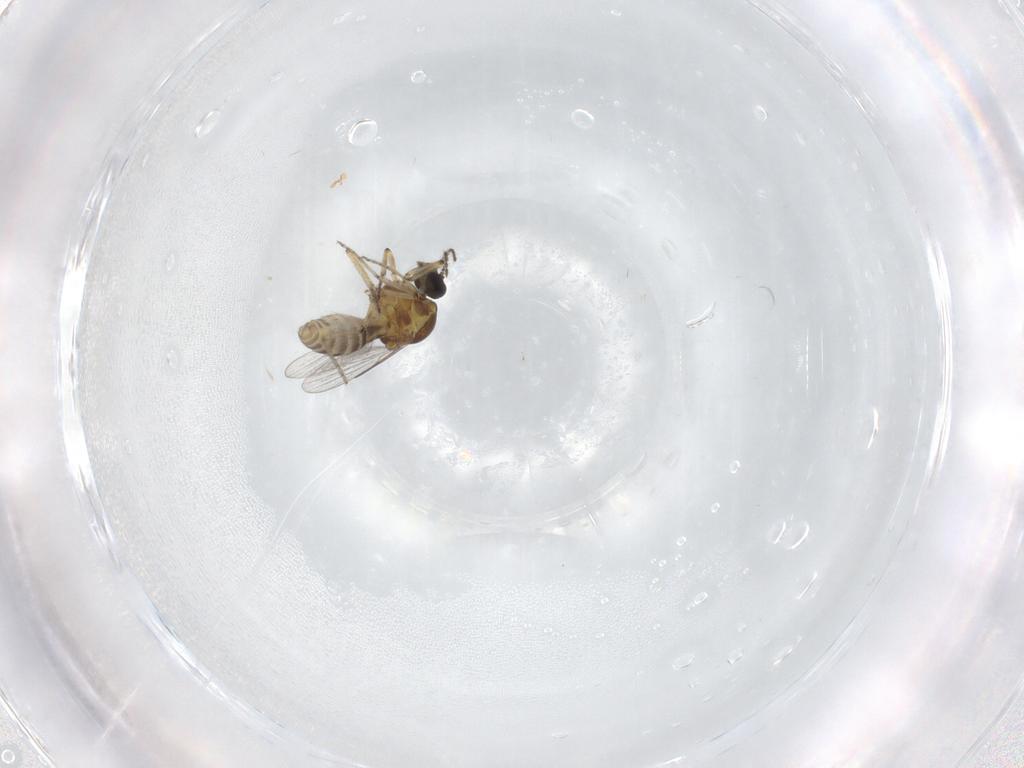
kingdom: Animalia
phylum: Arthropoda
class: Insecta
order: Diptera
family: Ceratopogonidae
